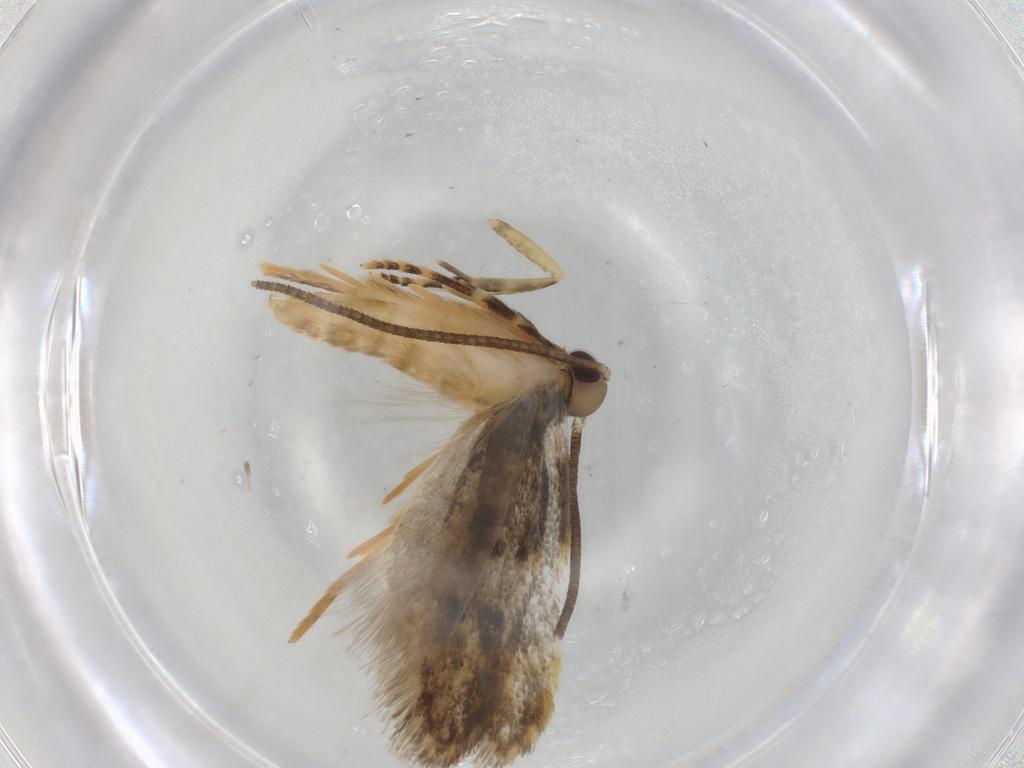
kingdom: Animalia
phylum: Arthropoda
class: Insecta
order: Lepidoptera
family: Autostichidae
